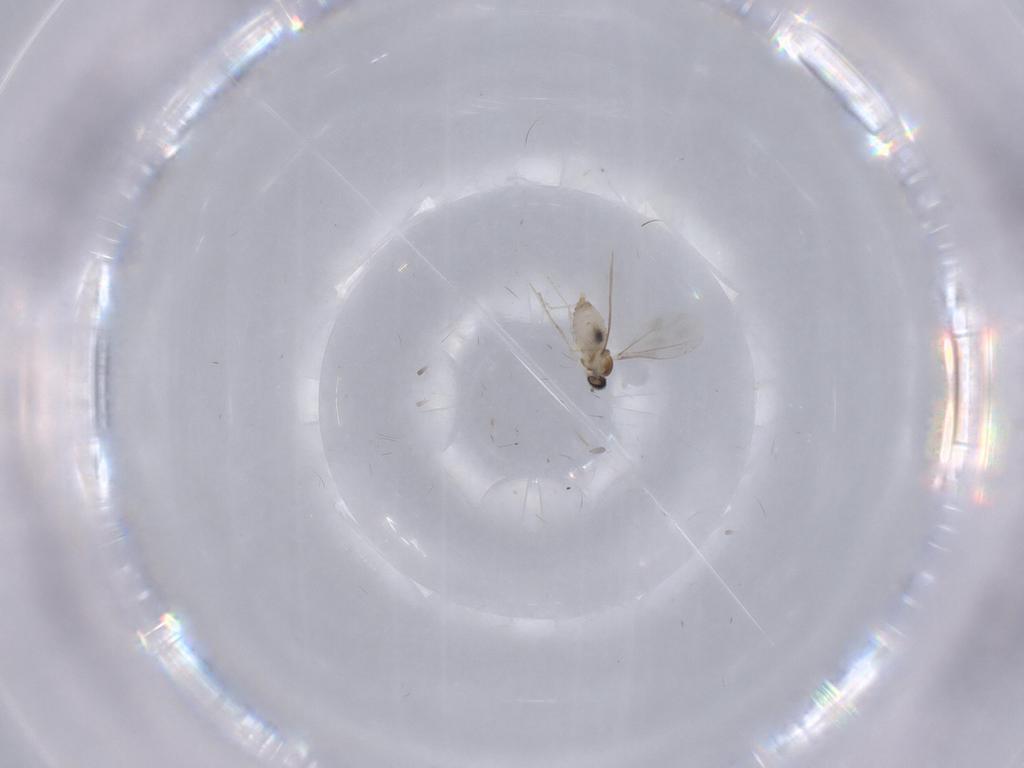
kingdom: Animalia
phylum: Arthropoda
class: Insecta
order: Diptera
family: Cecidomyiidae
